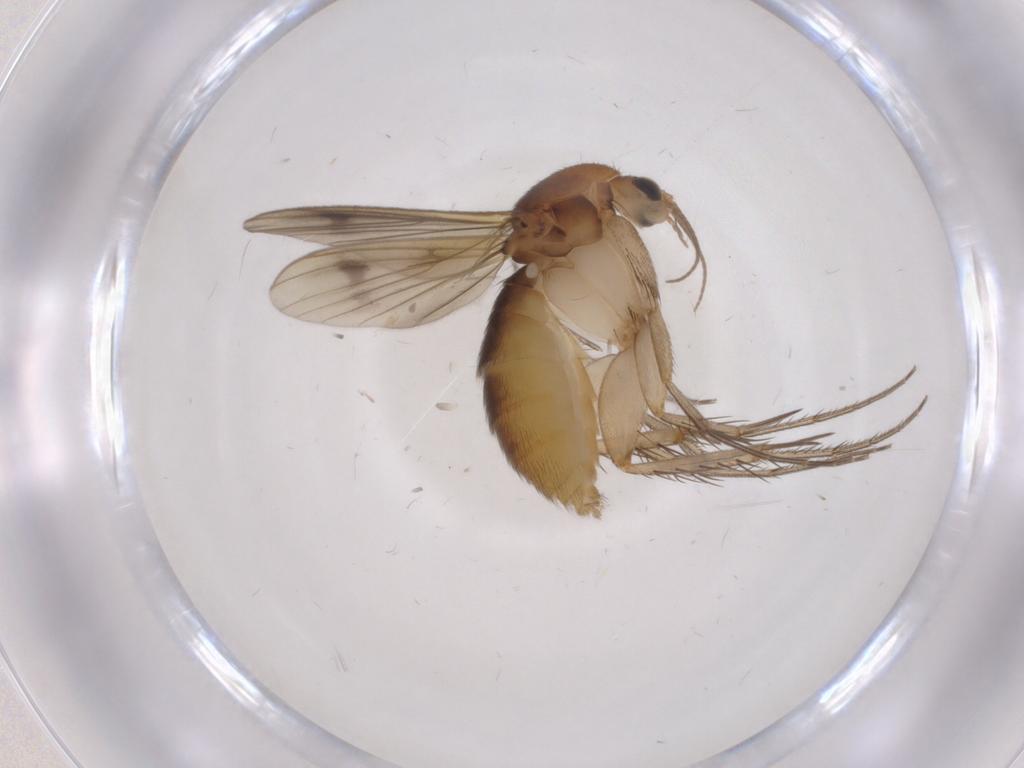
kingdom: Animalia
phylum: Arthropoda
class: Insecta
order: Diptera
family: Mycetophilidae
